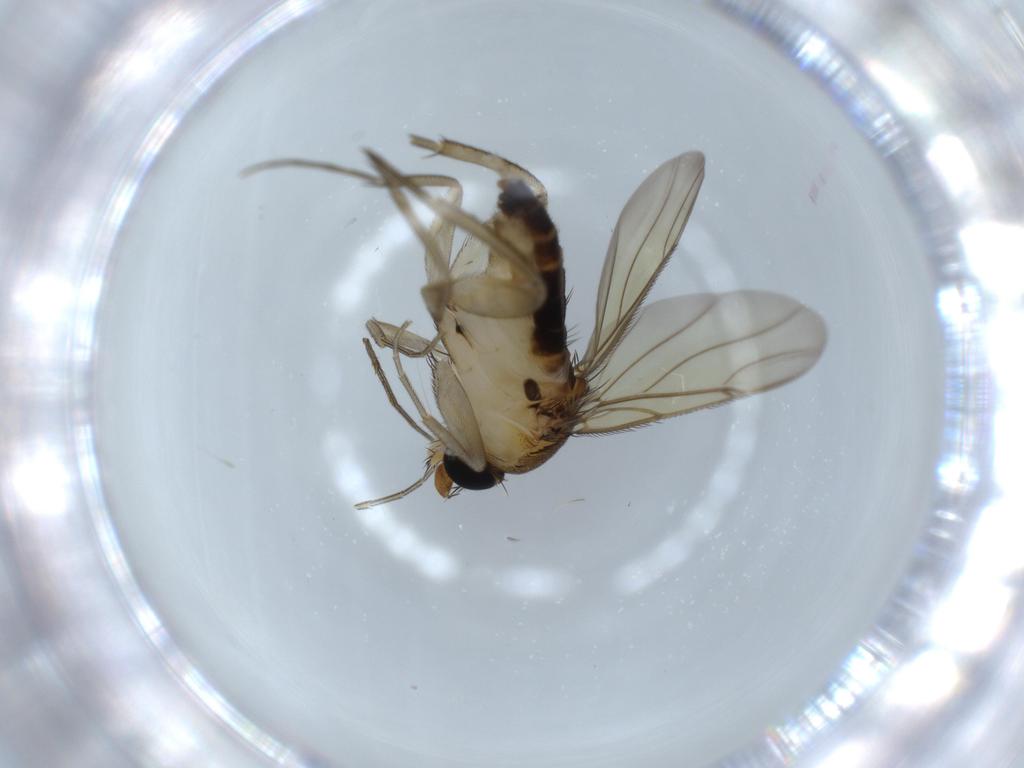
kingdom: Animalia
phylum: Arthropoda
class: Insecta
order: Diptera
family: Phoridae
